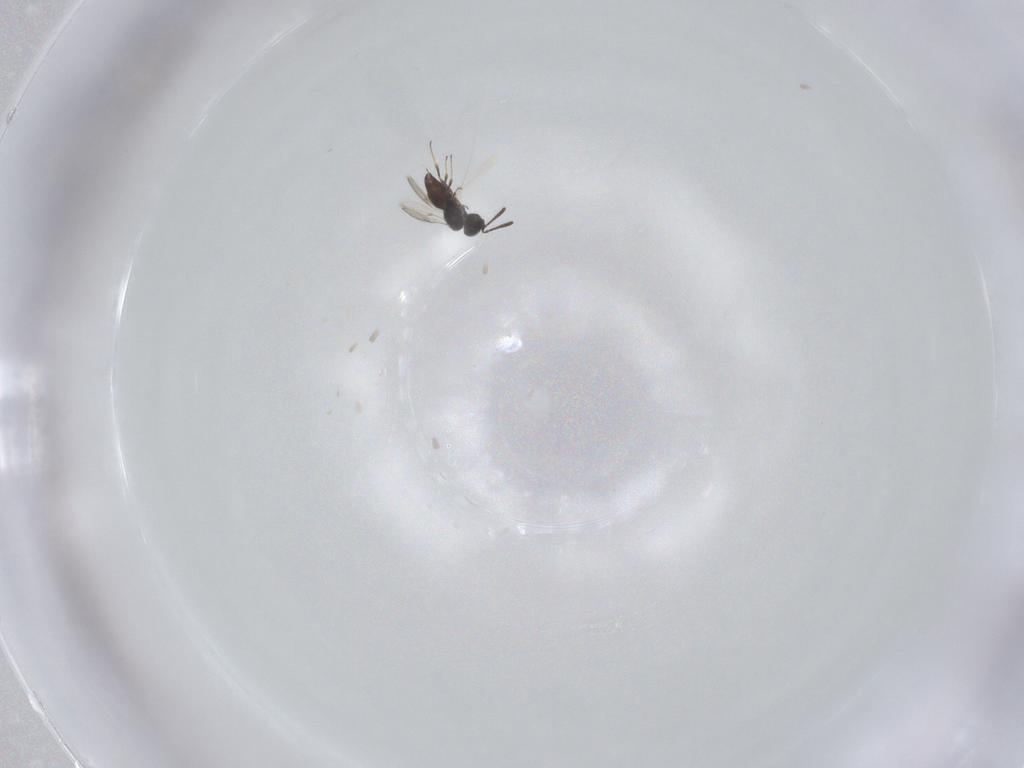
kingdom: Animalia
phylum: Arthropoda
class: Insecta
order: Hymenoptera
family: Scelionidae
